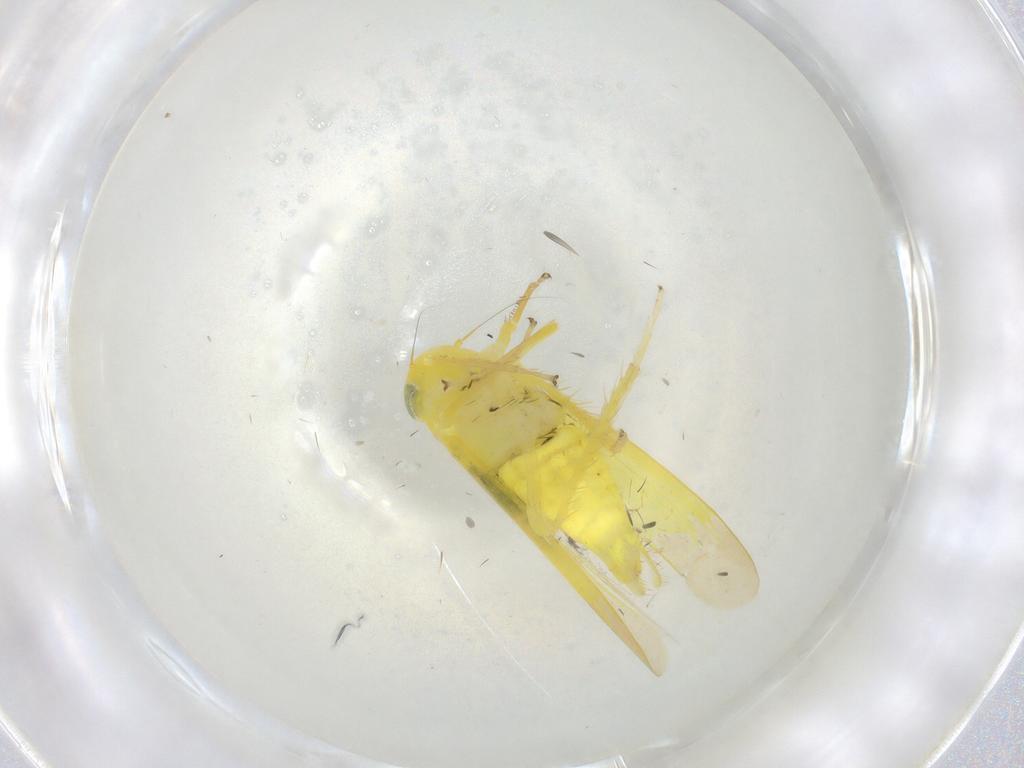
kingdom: Animalia
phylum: Arthropoda
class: Insecta
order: Hemiptera
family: Cicadellidae
